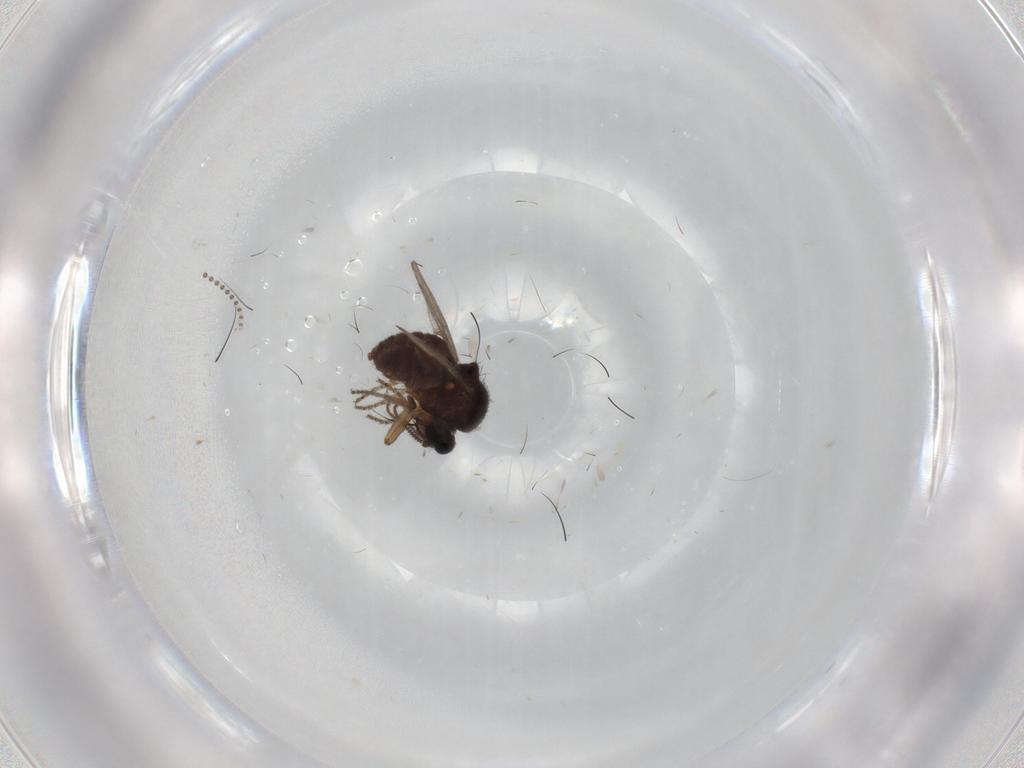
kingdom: Animalia
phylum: Arthropoda
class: Insecta
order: Diptera
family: Ceratopogonidae
